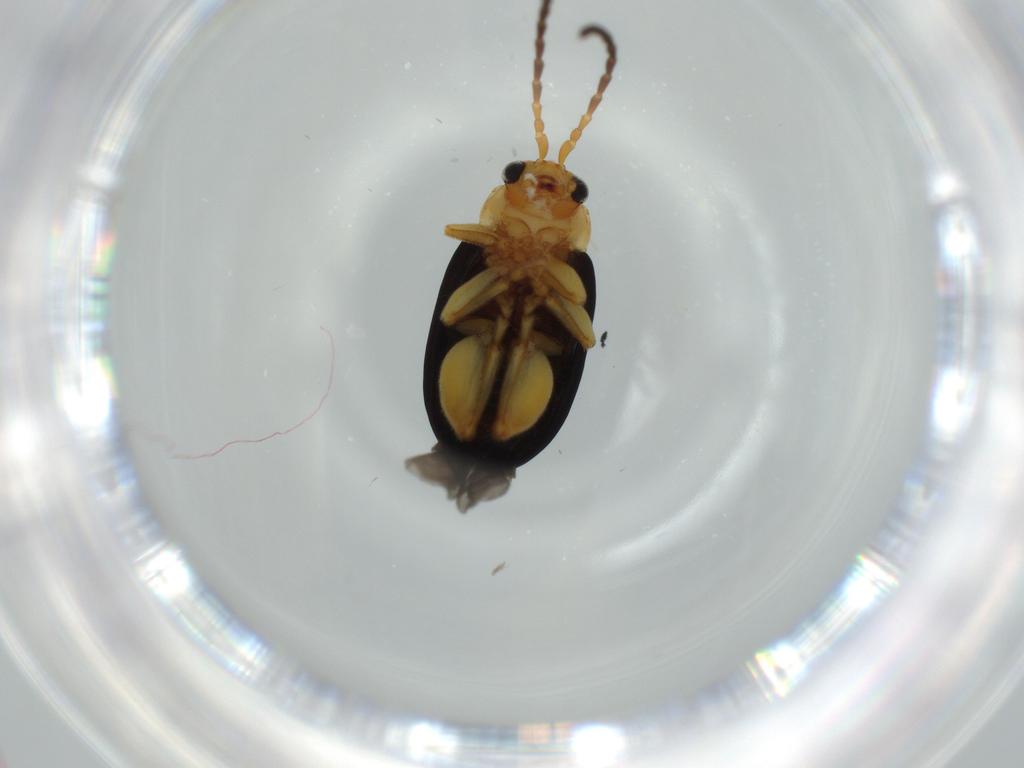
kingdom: Animalia
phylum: Arthropoda
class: Insecta
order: Coleoptera
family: Chrysomelidae
